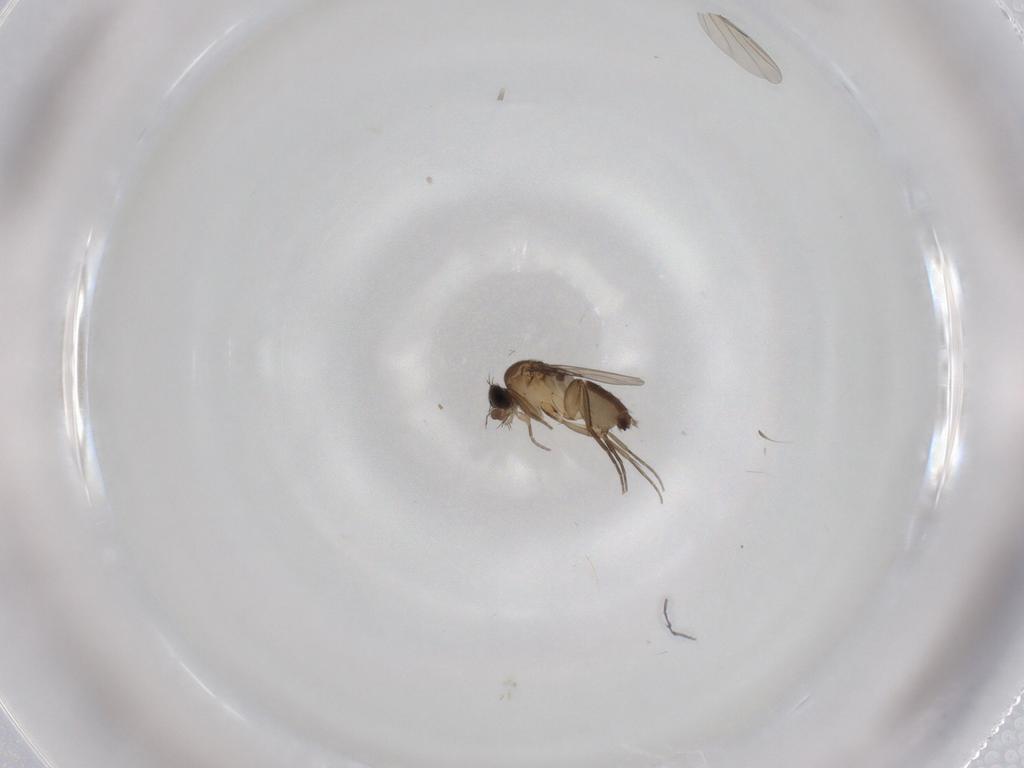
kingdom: Animalia
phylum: Arthropoda
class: Insecta
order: Diptera
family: Phoridae
